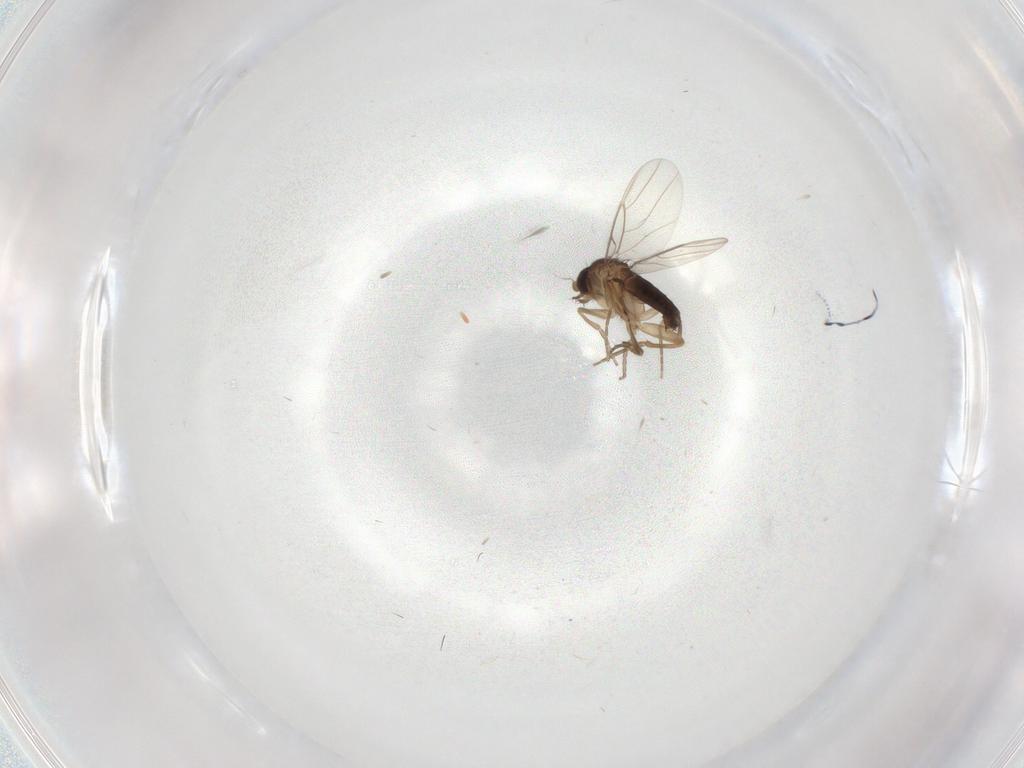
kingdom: Animalia
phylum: Arthropoda
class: Insecta
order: Diptera
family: Phoridae
